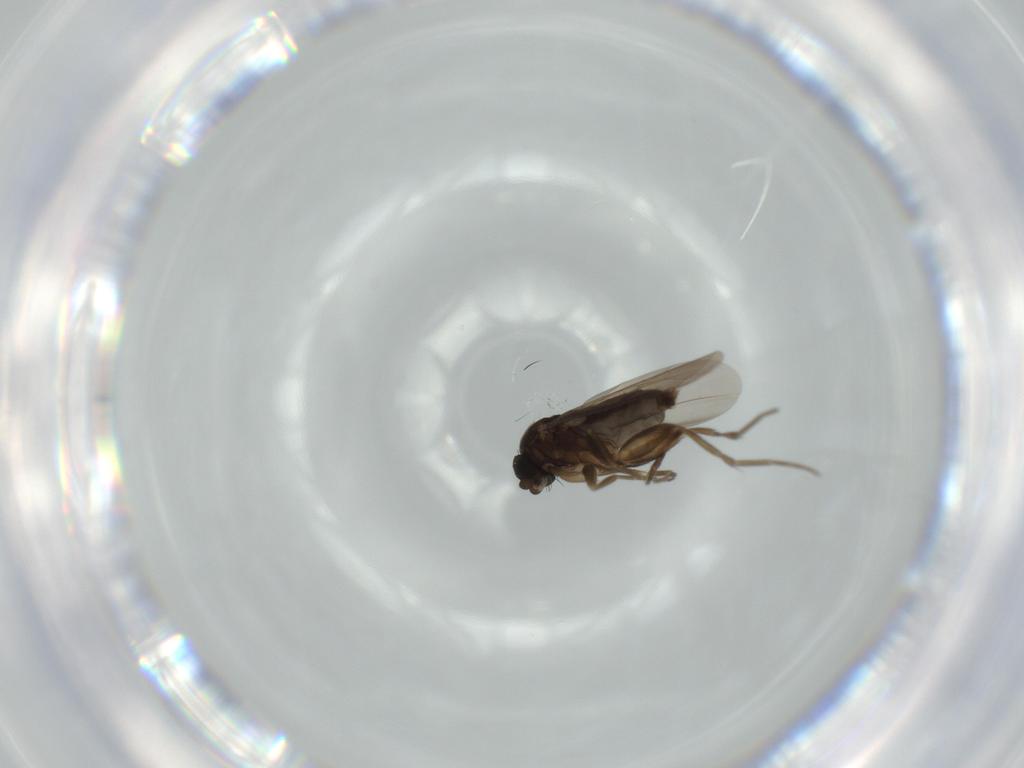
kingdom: Animalia
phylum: Arthropoda
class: Insecta
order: Diptera
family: Phoridae
